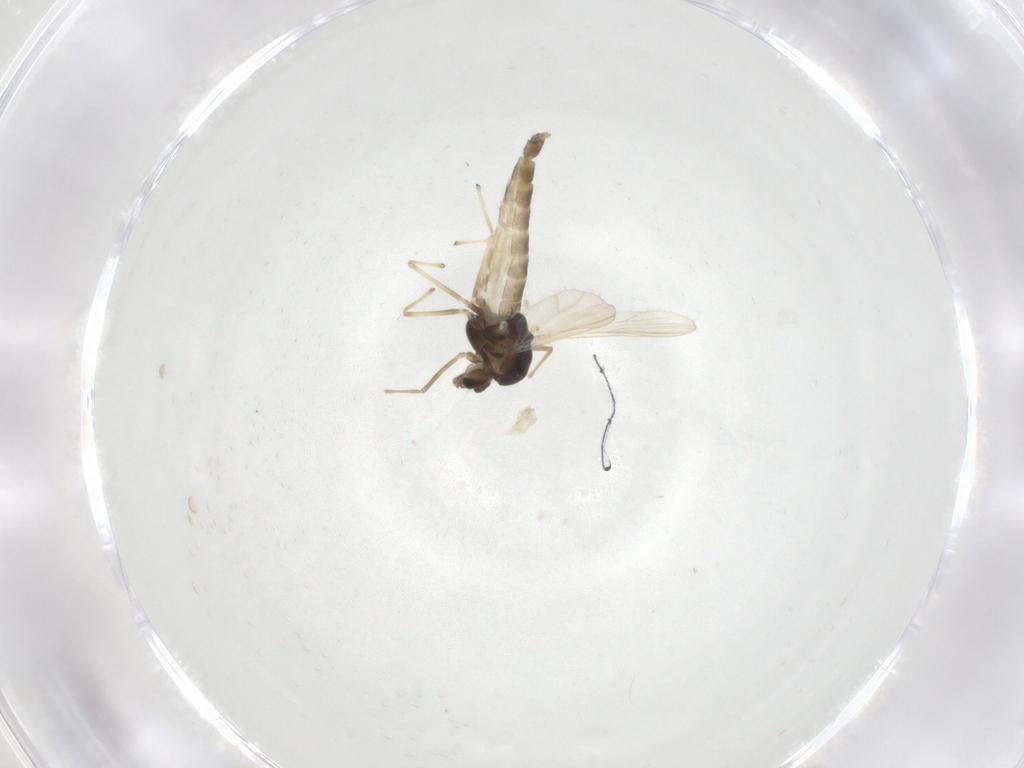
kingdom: Animalia
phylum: Arthropoda
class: Insecta
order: Diptera
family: Chironomidae
